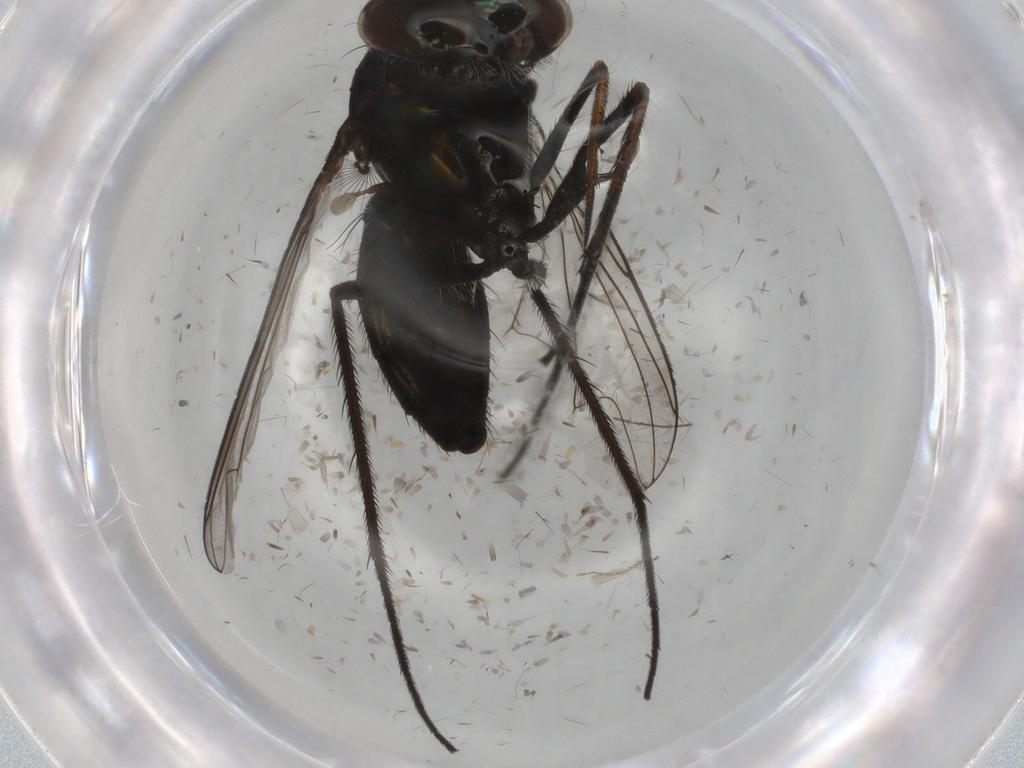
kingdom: Animalia
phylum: Arthropoda
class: Insecta
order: Diptera
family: Chironomidae
